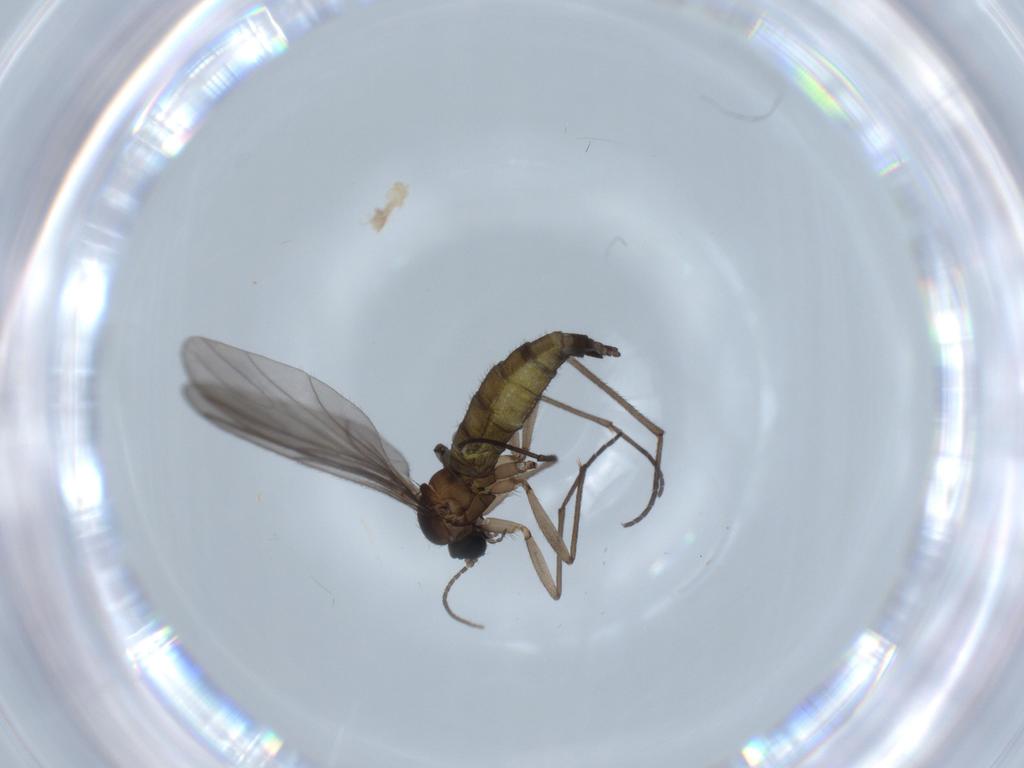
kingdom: Animalia
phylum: Arthropoda
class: Insecta
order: Diptera
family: Sciaridae
